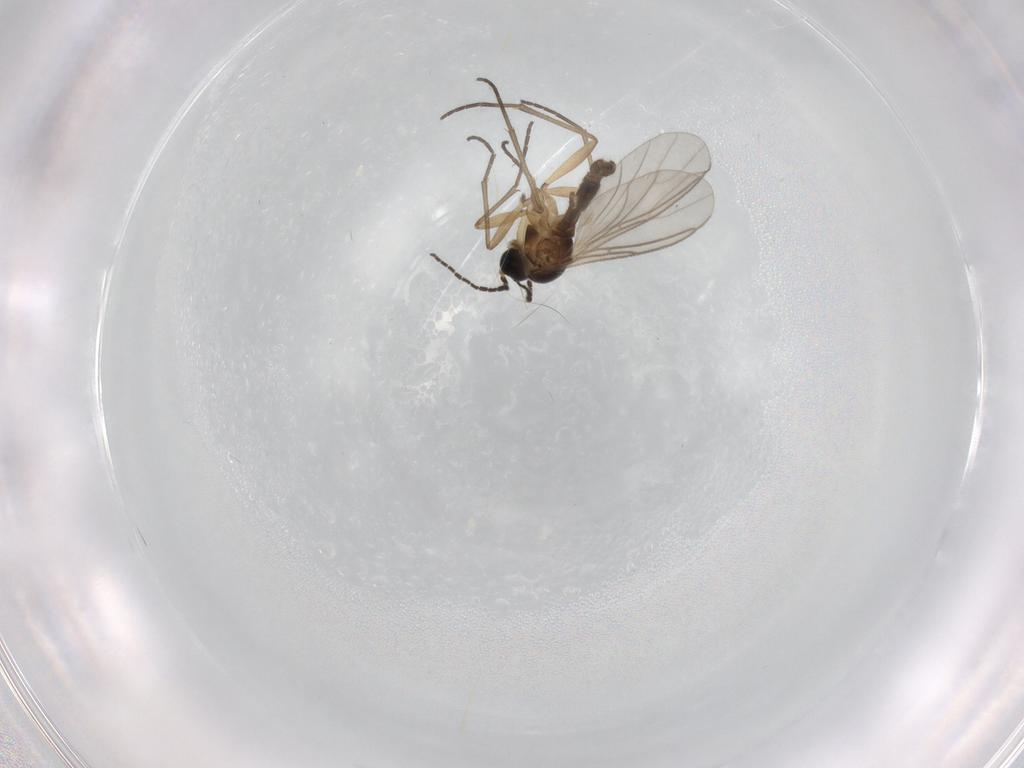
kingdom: Animalia
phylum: Arthropoda
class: Insecta
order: Diptera
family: Sciaridae
